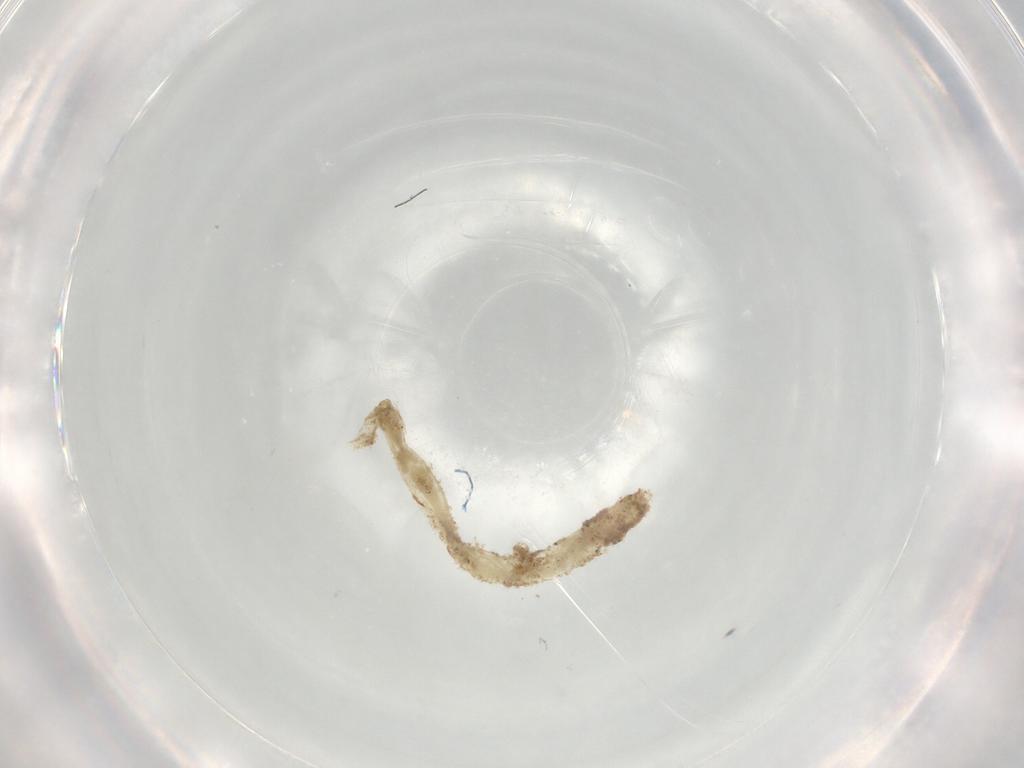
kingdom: Animalia
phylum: Arthropoda
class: Insecta
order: Diptera
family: Chironomidae
